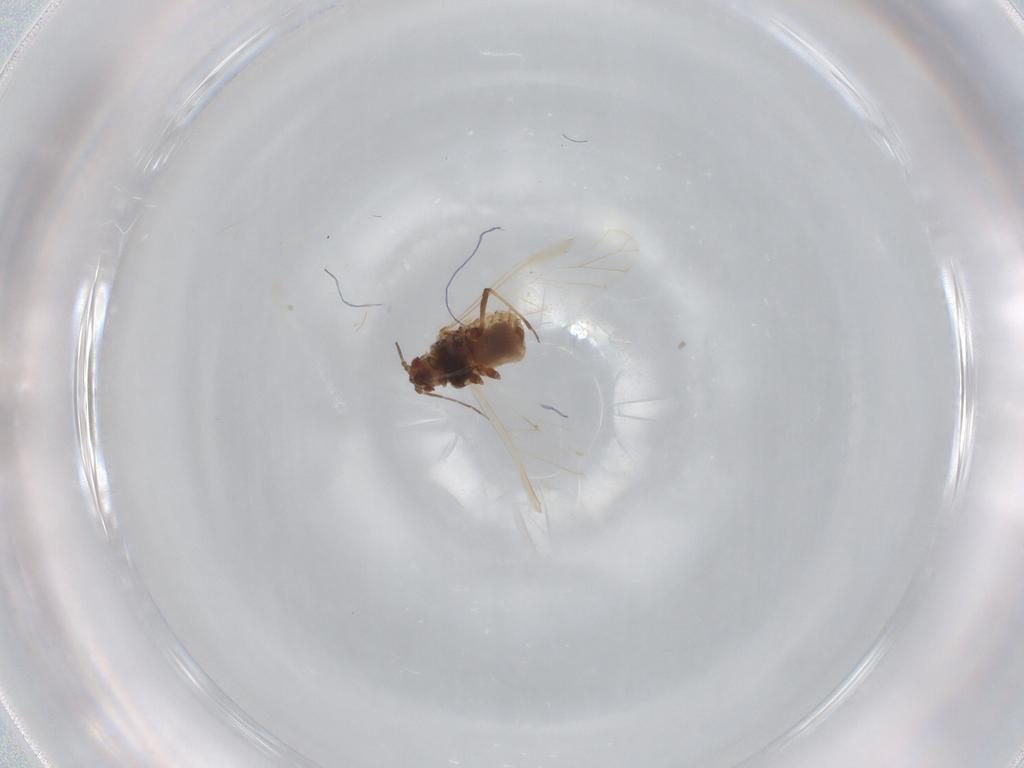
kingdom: Animalia
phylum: Arthropoda
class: Insecta
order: Hemiptera
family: Aphididae
